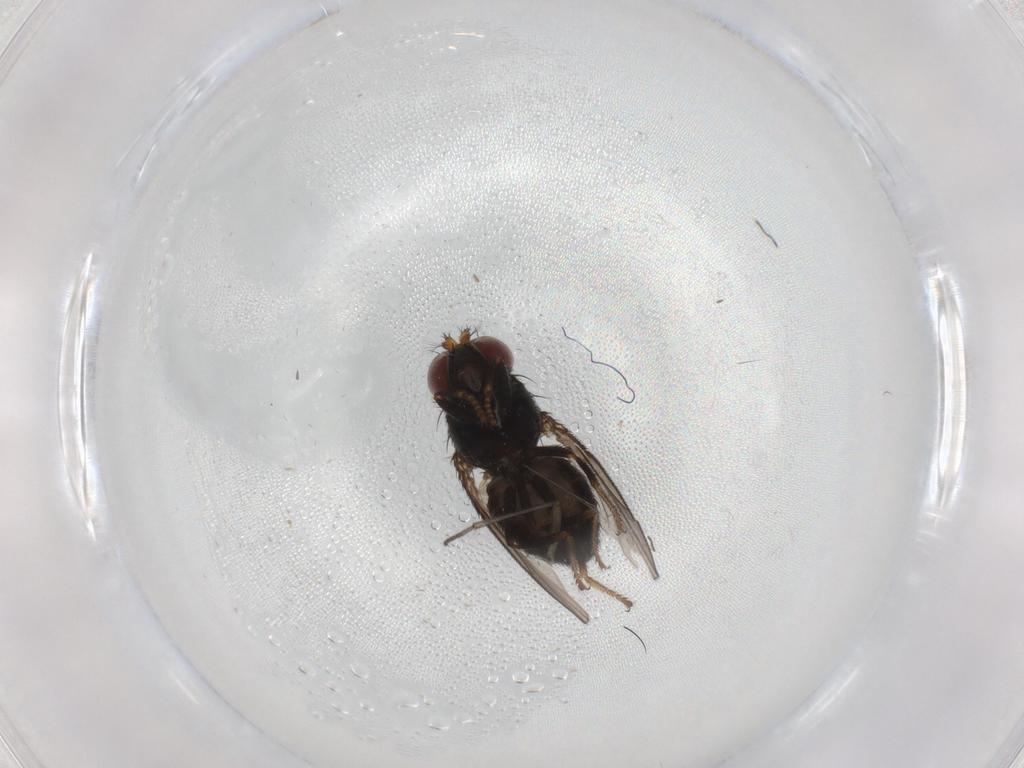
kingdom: Animalia
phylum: Arthropoda
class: Insecta
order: Diptera
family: Ephydridae
